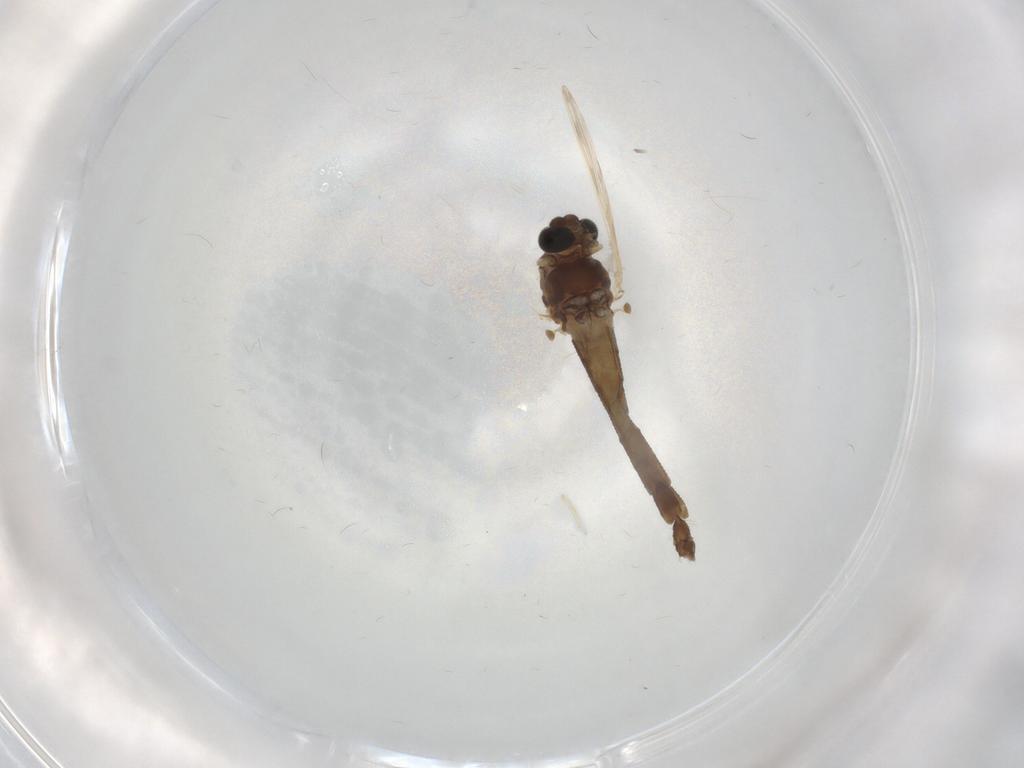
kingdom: Animalia
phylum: Arthropoda
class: Insecta
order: Diptera
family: Chironomidae
